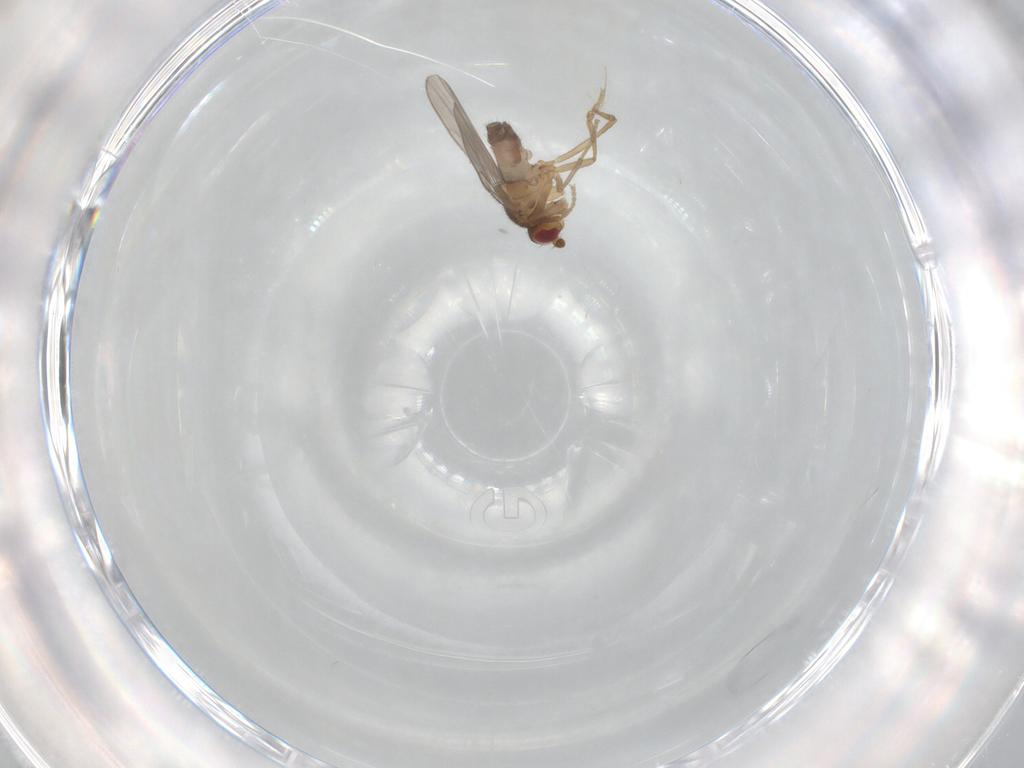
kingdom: Animalia
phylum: Arthropoda
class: Insecta
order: Diptera
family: Sphaeroceridae
